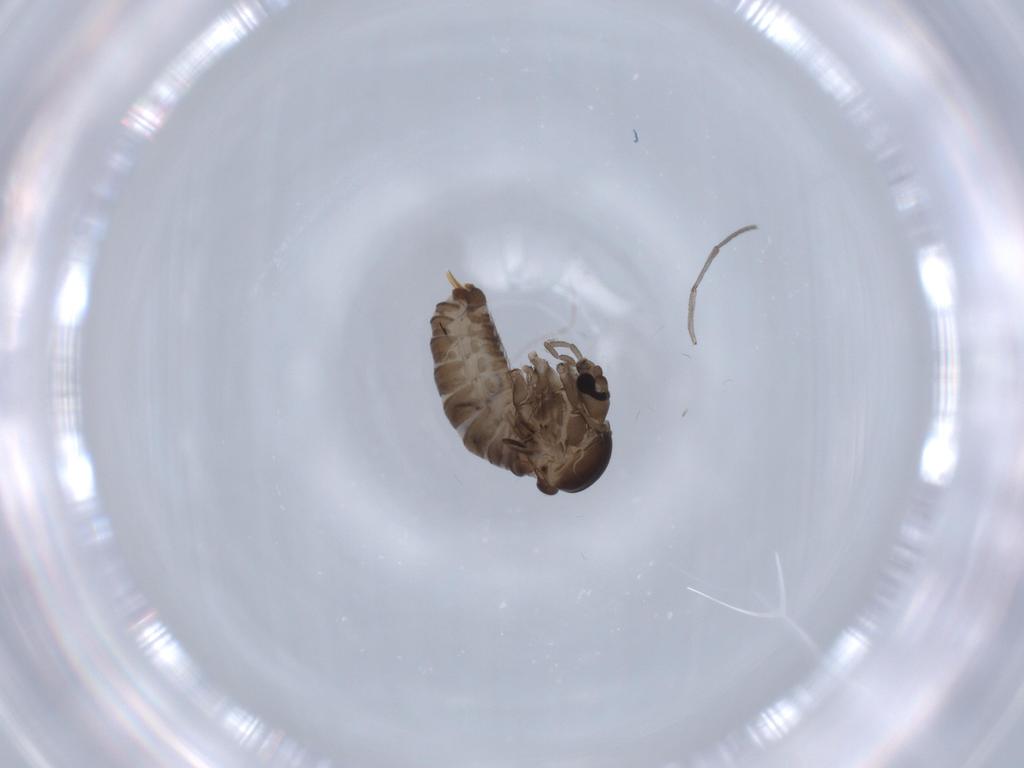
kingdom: Animalia
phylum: Arthropoda
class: Insecta
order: Diptera
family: Psychodidae
